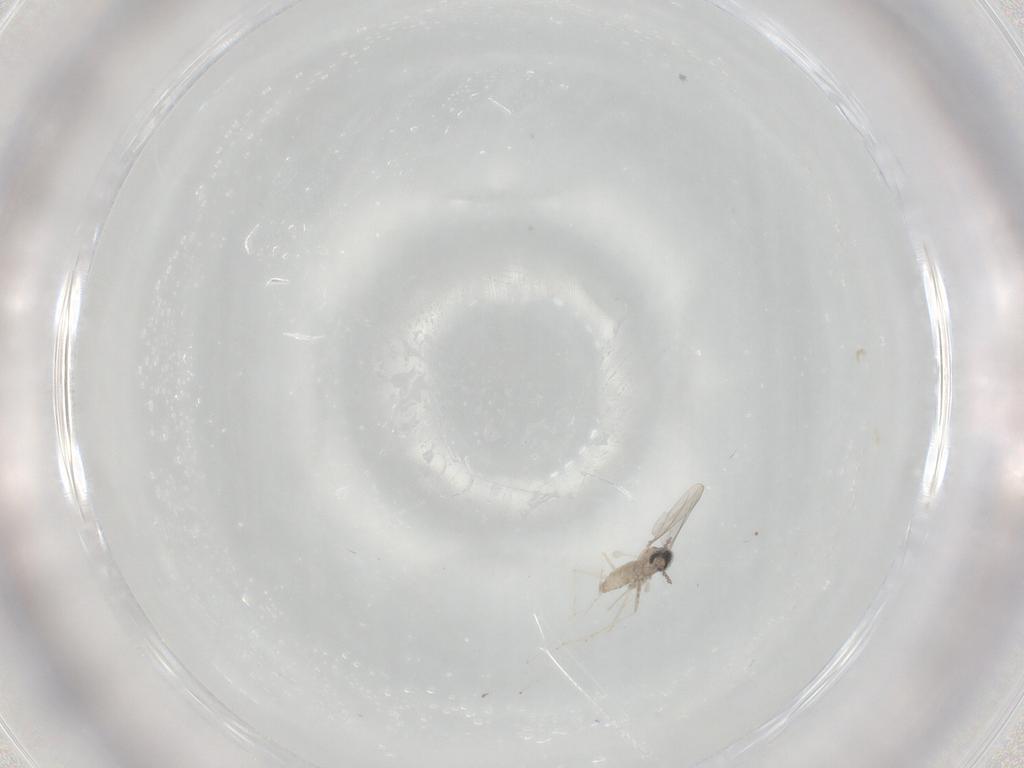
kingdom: Animalia
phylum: Arthropoda
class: Insecta
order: Diptera
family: Cecidomyiidae
